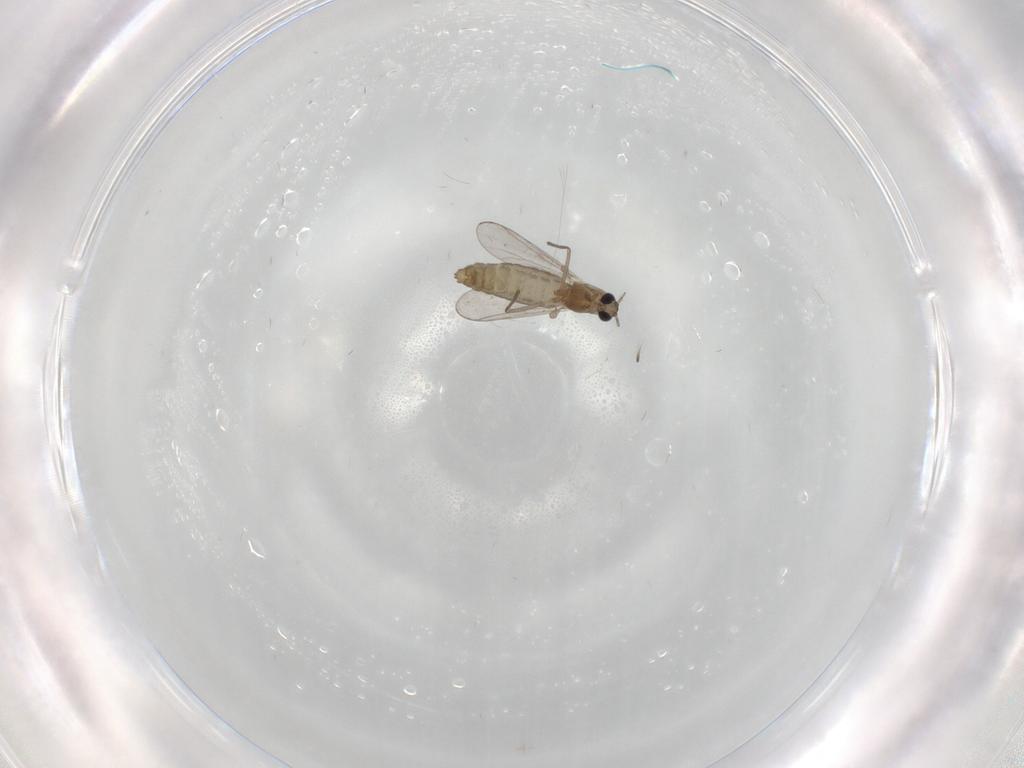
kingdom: Animalia
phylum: Arthropoda
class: Insecta
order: Diptera
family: Chironomidae
